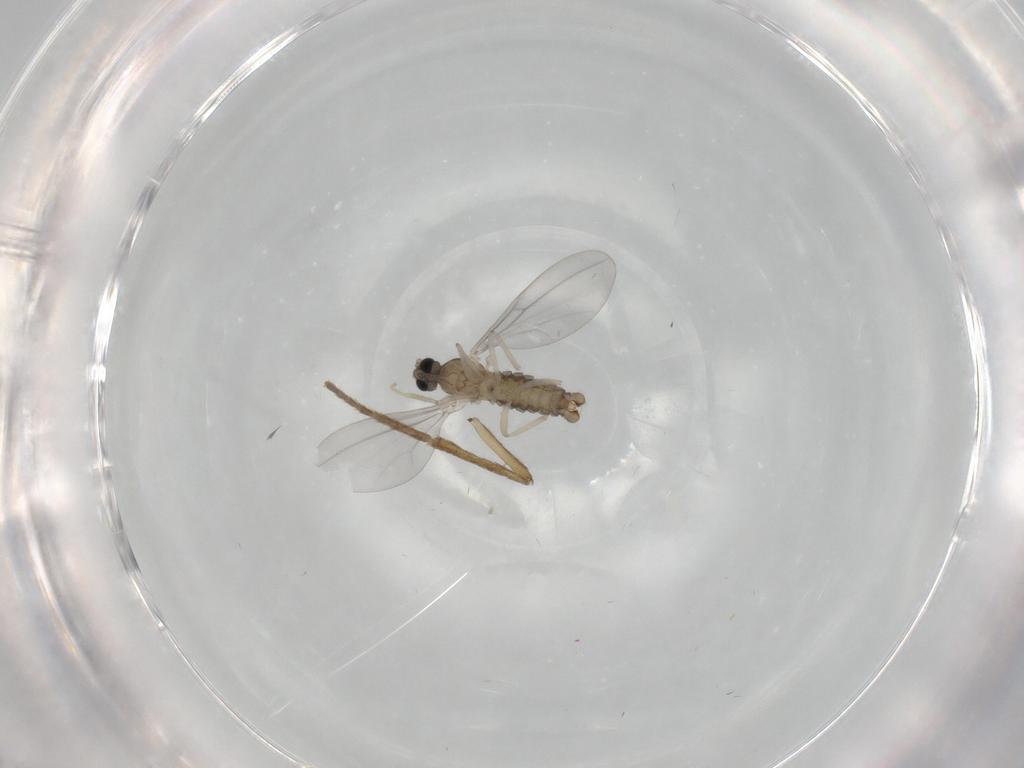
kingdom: Animalia
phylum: Arthropoda
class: Insecta
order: Diptera
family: Cecidomyiidae
